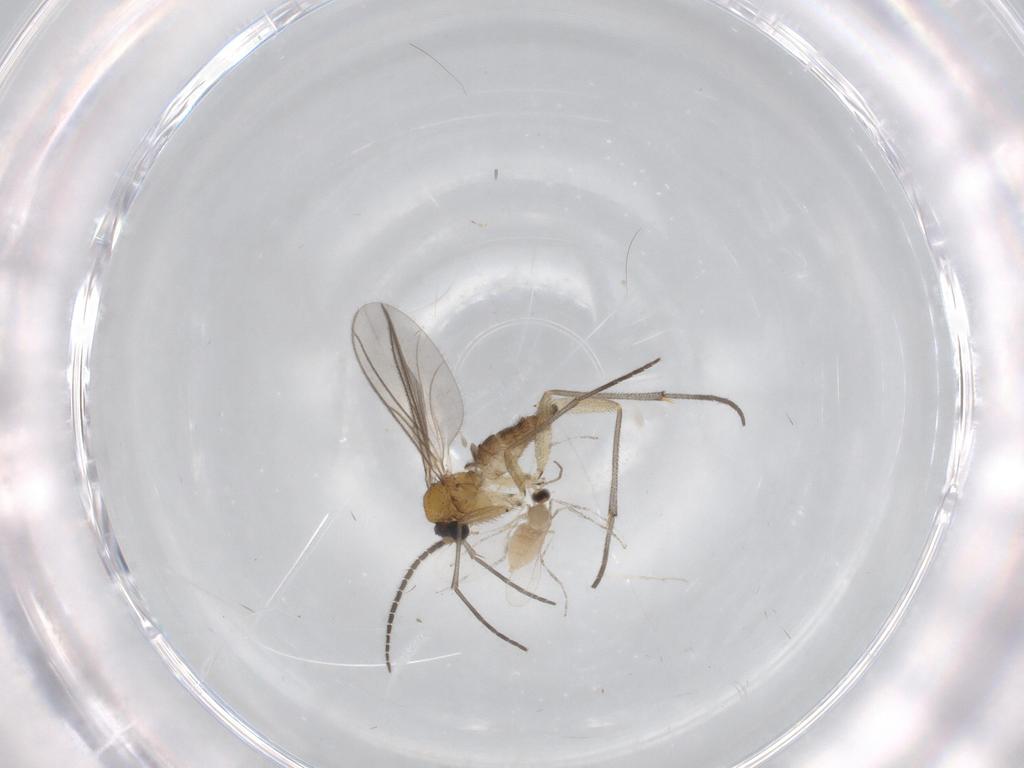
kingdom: Animalia
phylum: Arthropoda
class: Insecta
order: Diptera
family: Sciaridae
